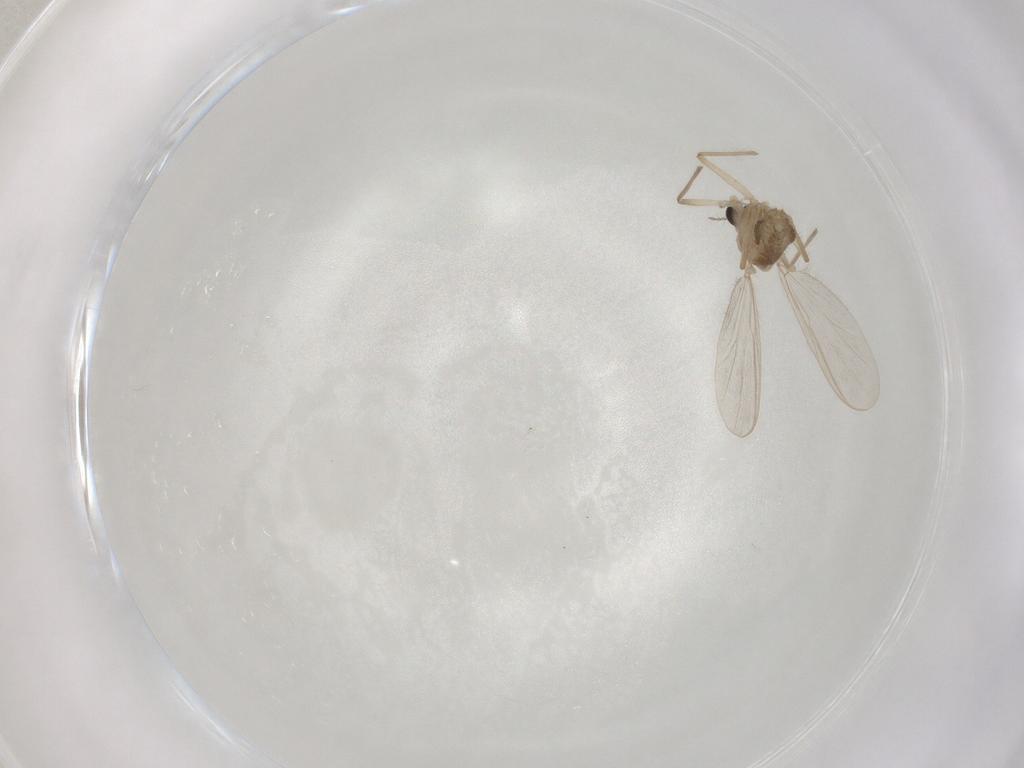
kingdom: Animalia
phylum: Arthropoda
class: Insecta
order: Diptera
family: Chironomidae
